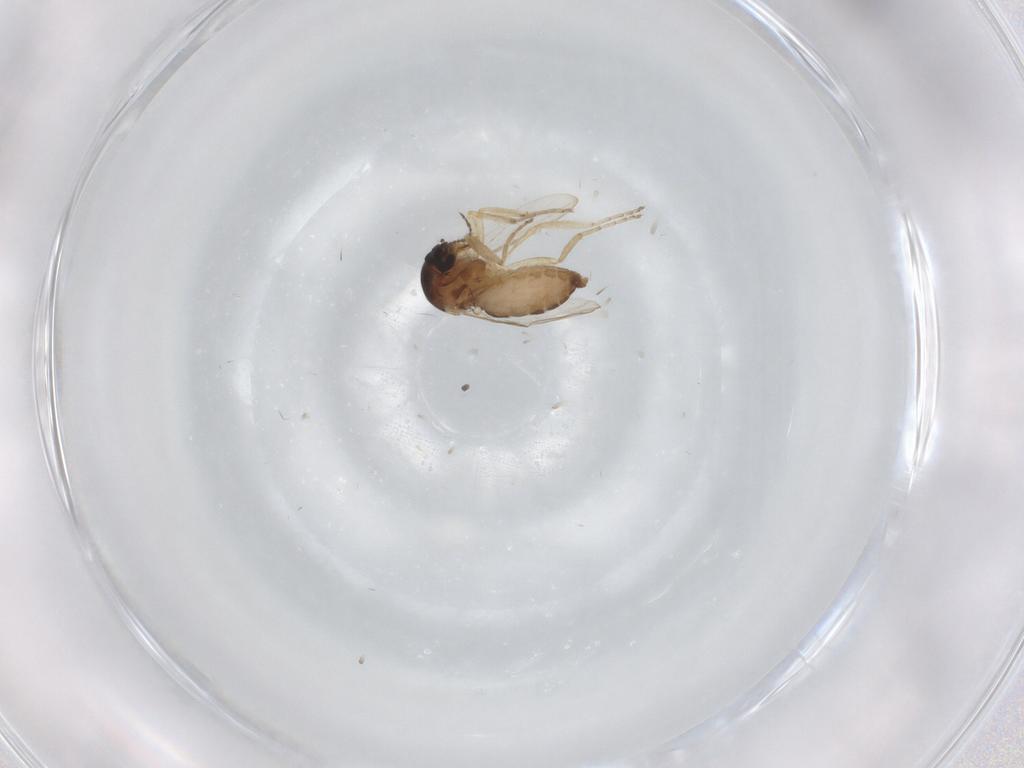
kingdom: Animalia
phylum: Arthropoda
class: Insecta
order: Diptera
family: Ceratopogonidae
